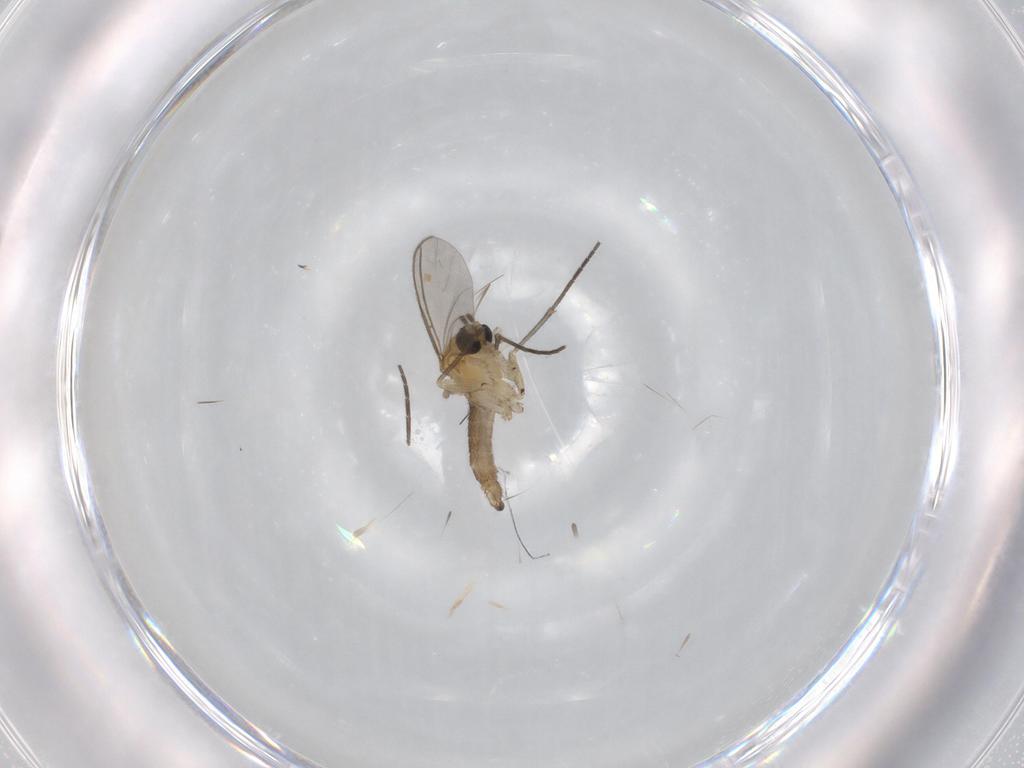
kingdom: Animalia
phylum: Arthropoda
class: Insecta
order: Diptera
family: Sciaridae
